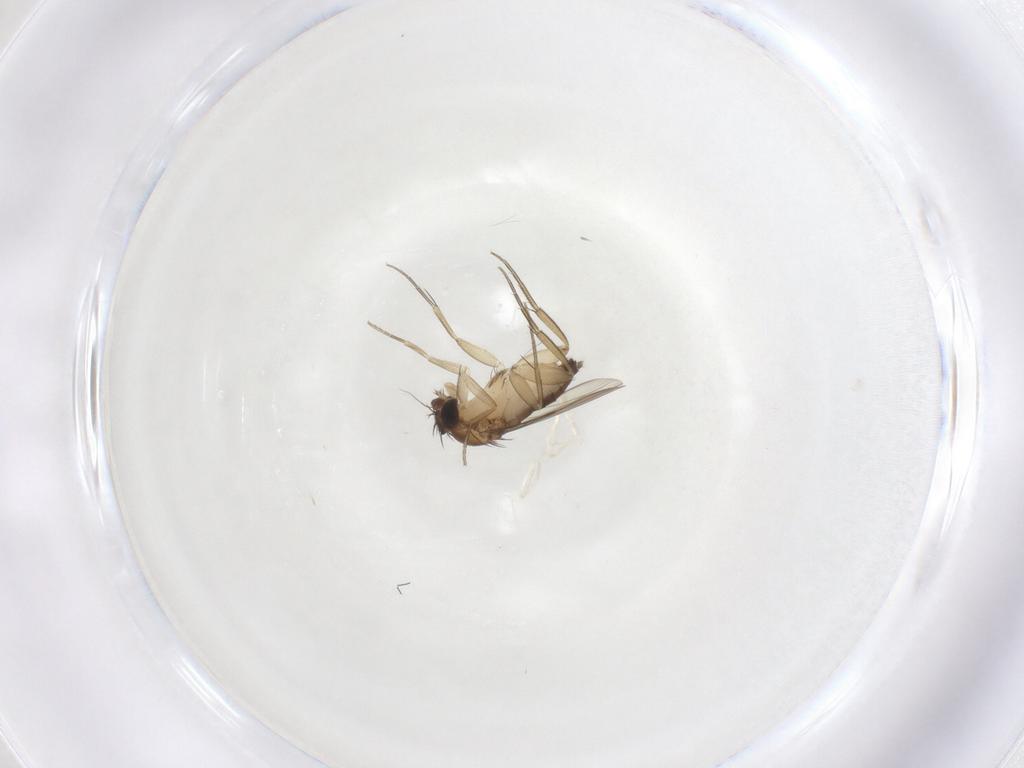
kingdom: Animalia
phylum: Arthropoda
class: Insecta
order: Diptera
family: Phoridae
